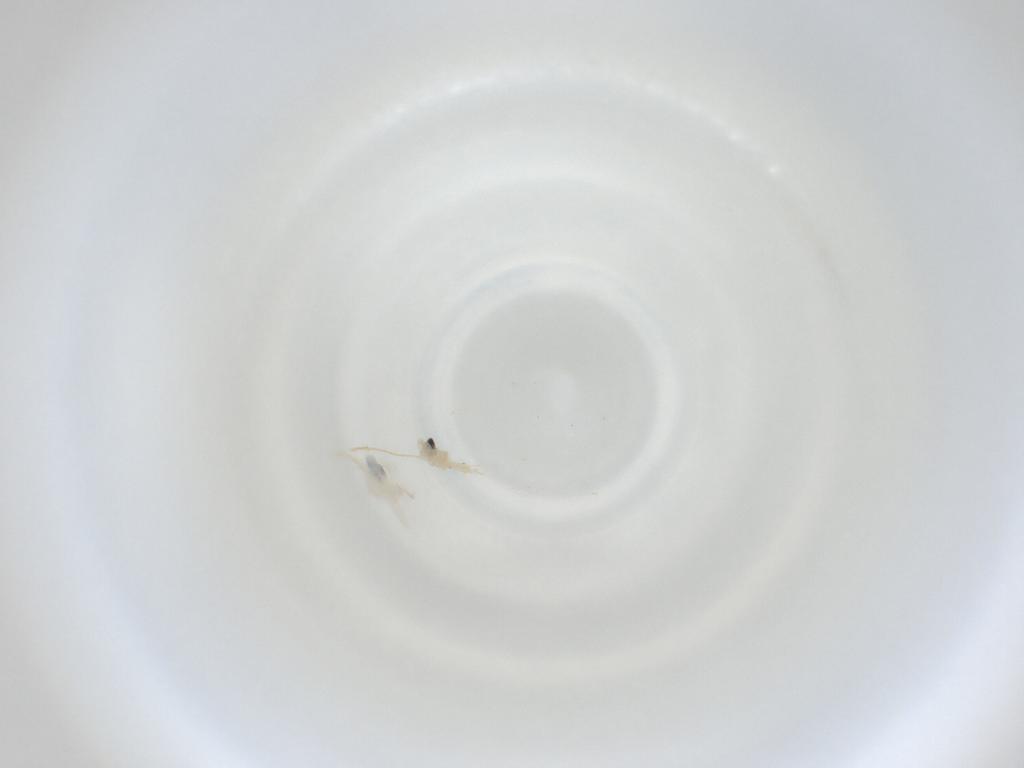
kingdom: Animalia
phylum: Arthropoda
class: Insecta
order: Diptera
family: Cecidomyiidae
